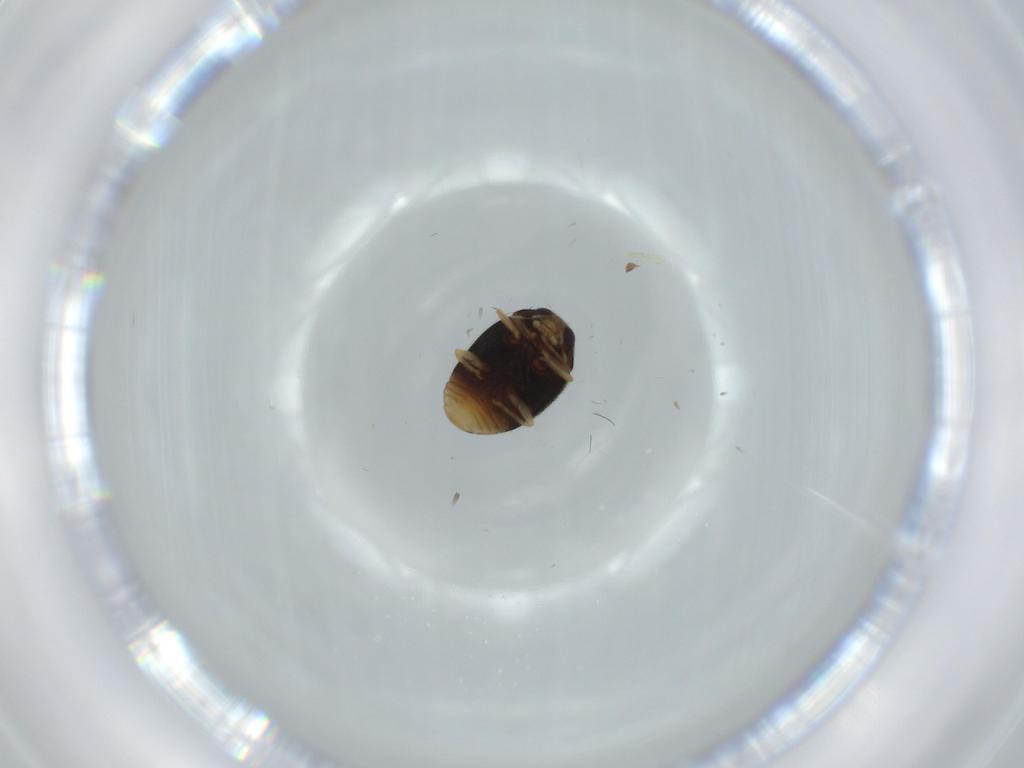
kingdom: Animalia
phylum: Arthropoda
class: Insecta
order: Coleoptera
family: Coccinellidae
